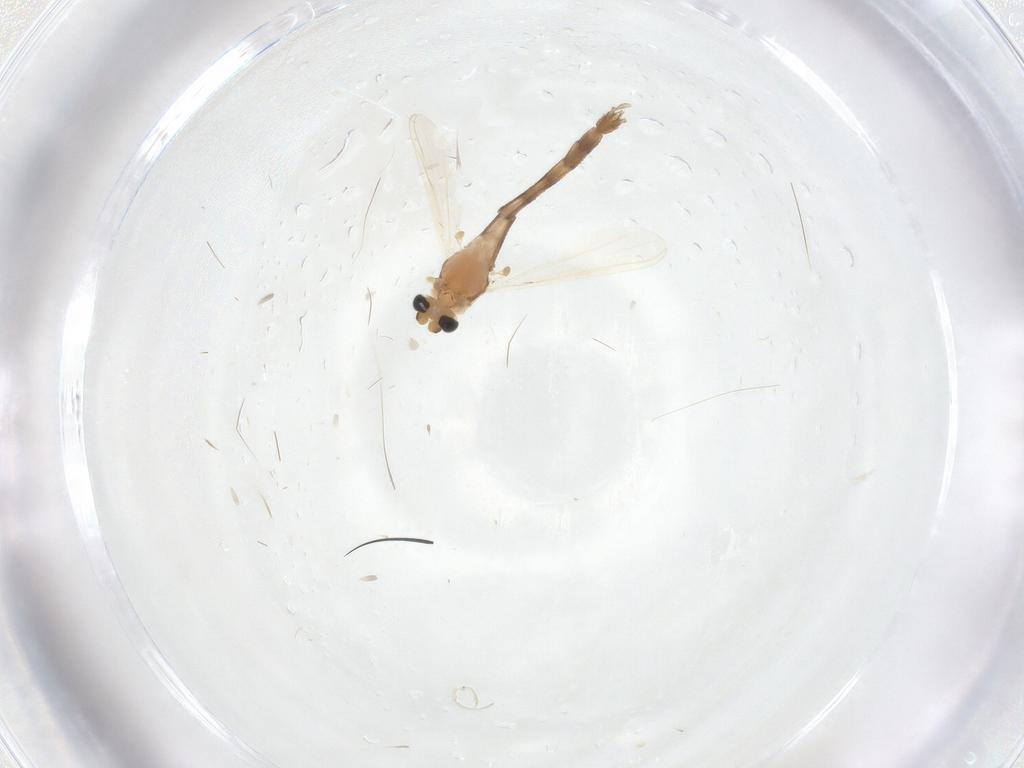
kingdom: Animalia
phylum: Arthropoda
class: Insecta
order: Diptera
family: Chironomidae
